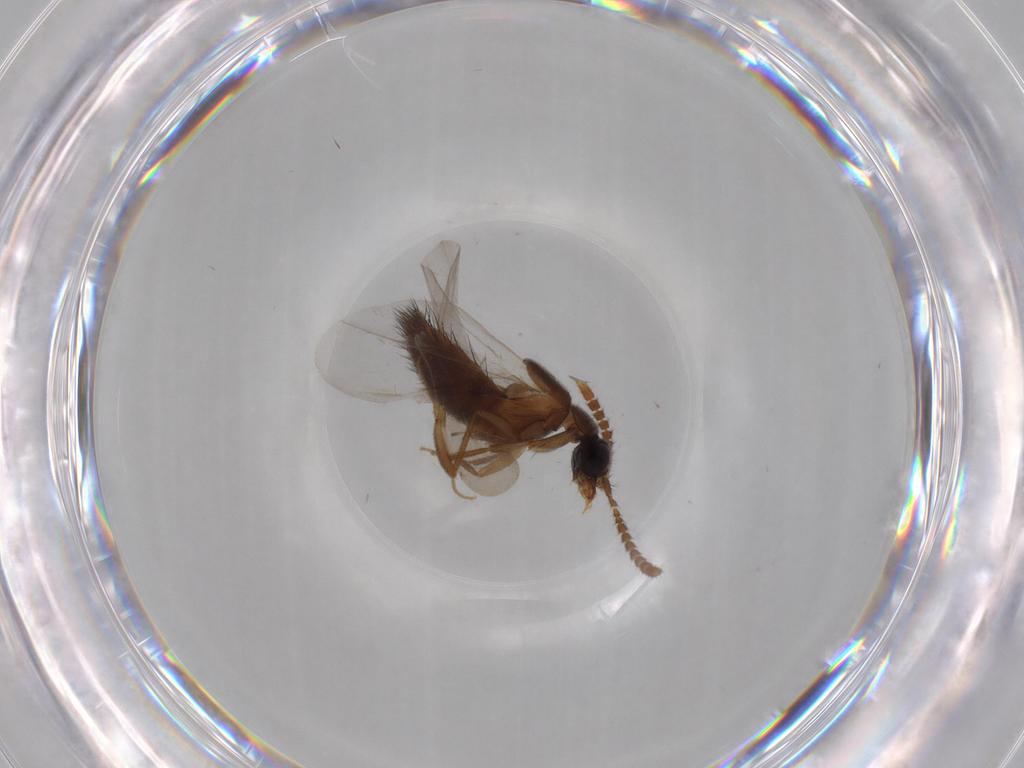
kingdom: Animalia
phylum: Arthropoda
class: Insecta
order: Coleoptera
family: Staphylinidae
